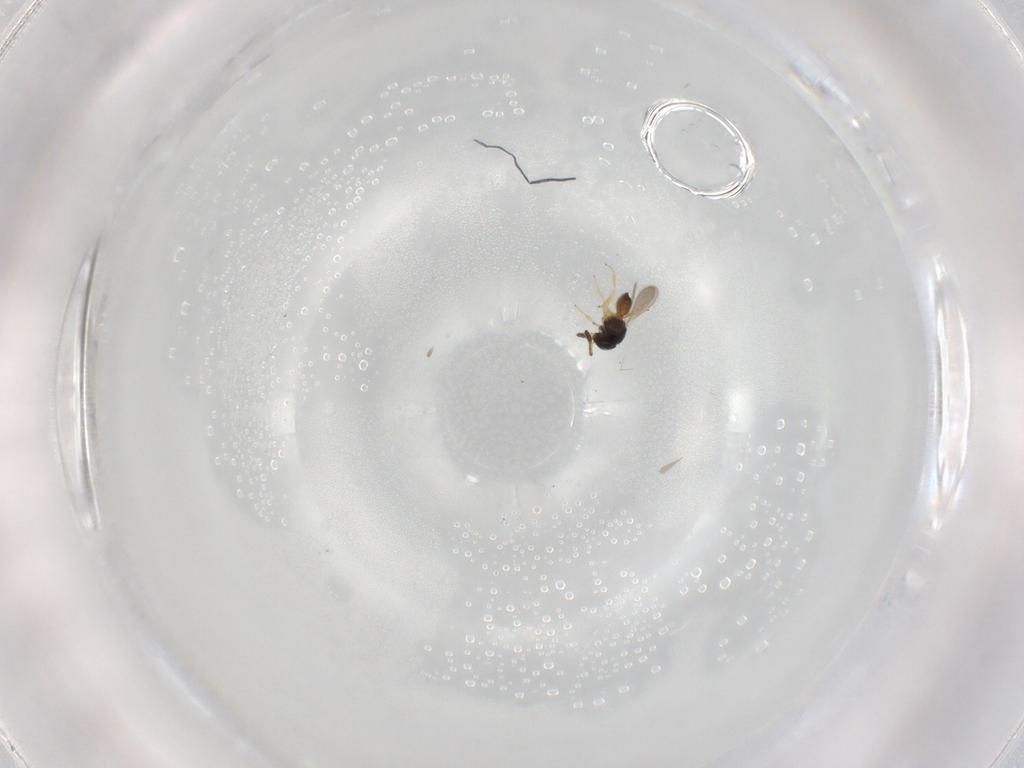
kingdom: Animalia
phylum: Arthropoda
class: Insecta
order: Hymenoptera
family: Scelionidae
